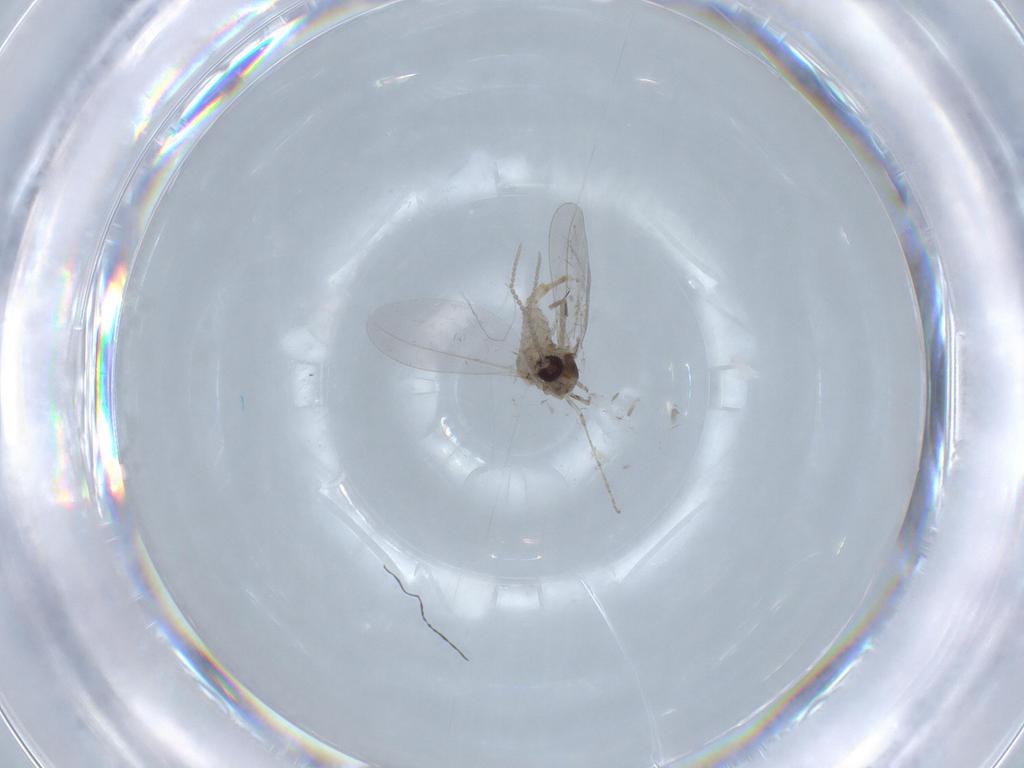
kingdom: Animalia
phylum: Arthropoda
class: Insecta
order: Diptera
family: Cecidomyiidae
